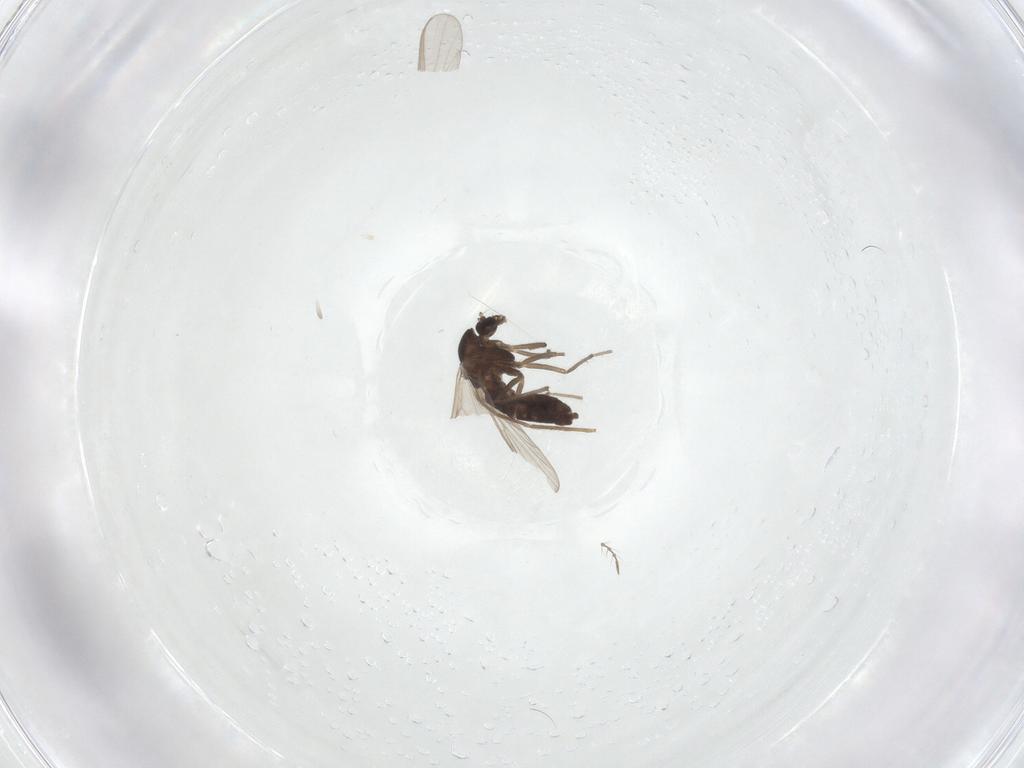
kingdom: Animalia
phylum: Arthropoda
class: Insecta
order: Diptera
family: Chironomidae
